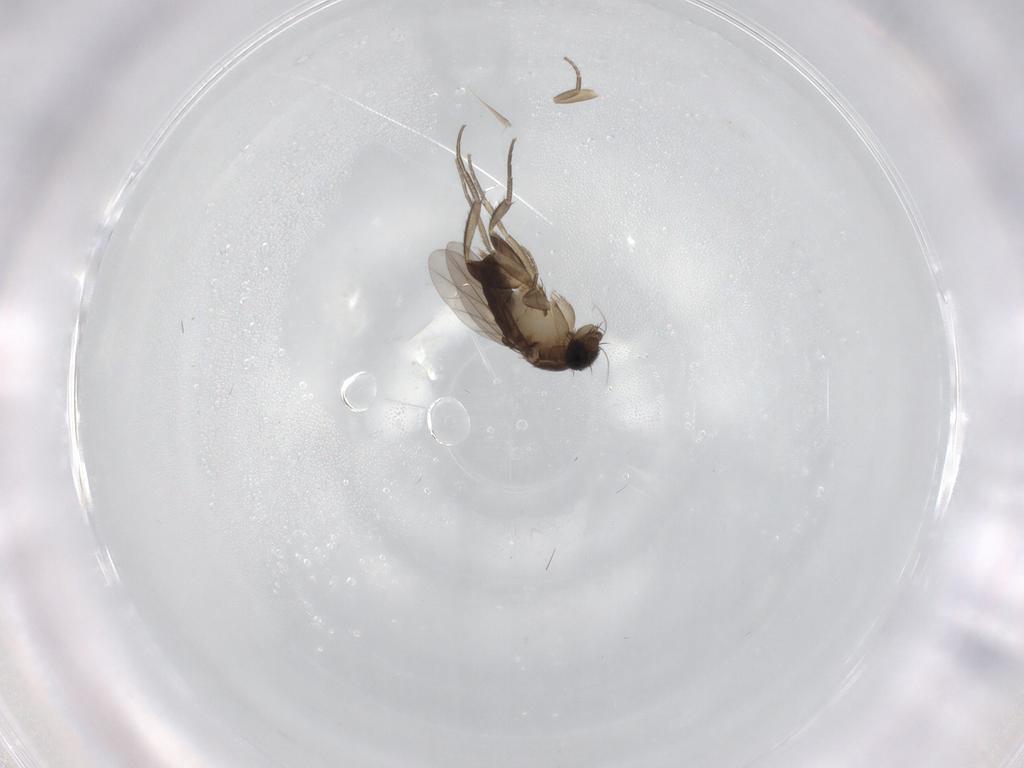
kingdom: Animalia
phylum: Arthropoda
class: Insecta
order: Diptera
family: Phoridae
